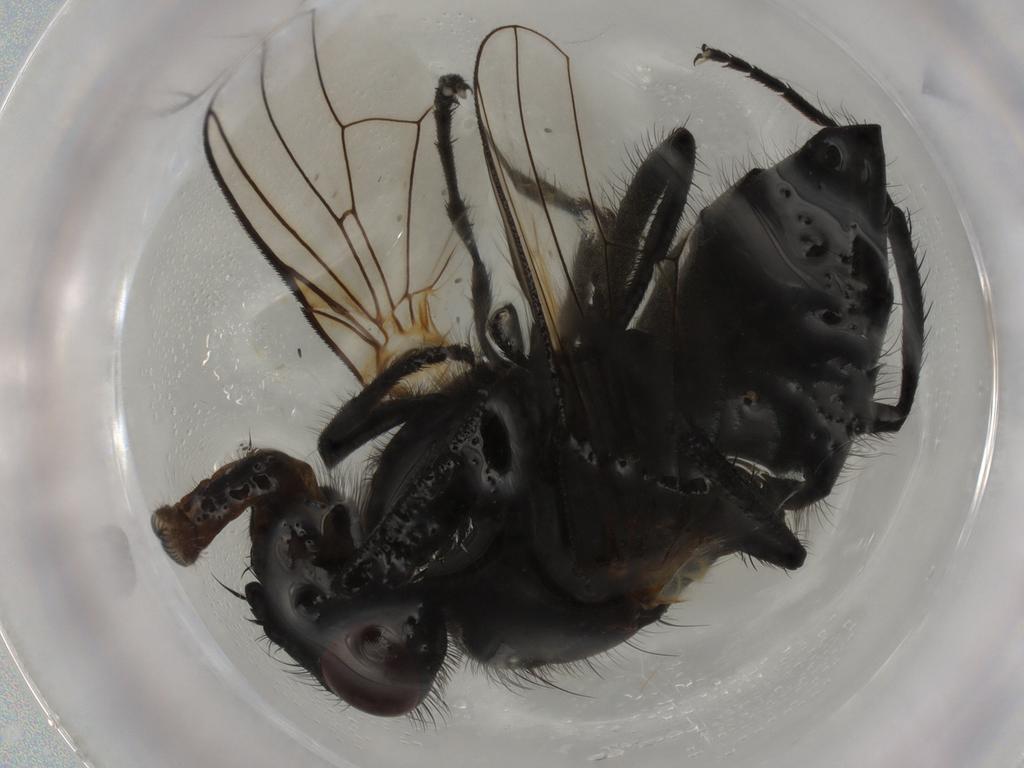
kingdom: Animalia
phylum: Arthropoda
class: Insecta
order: Diptera
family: Muscidae
